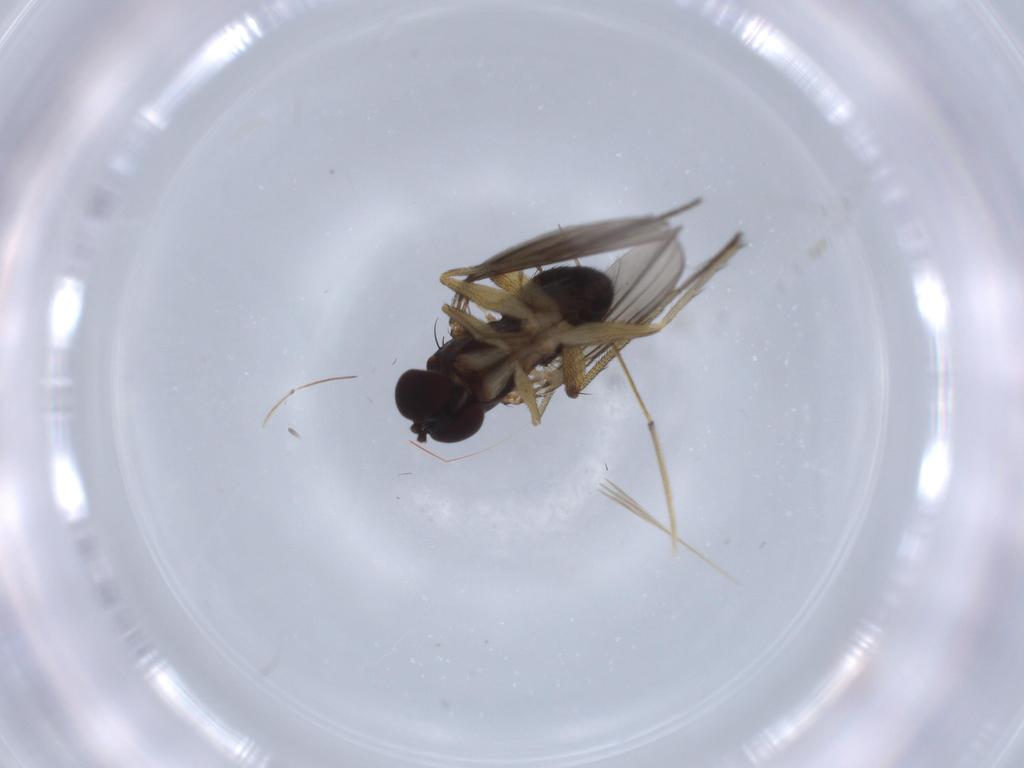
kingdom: Animalia
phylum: Arthropoda
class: Insecta
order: Diptera
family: Dolichopodidae
